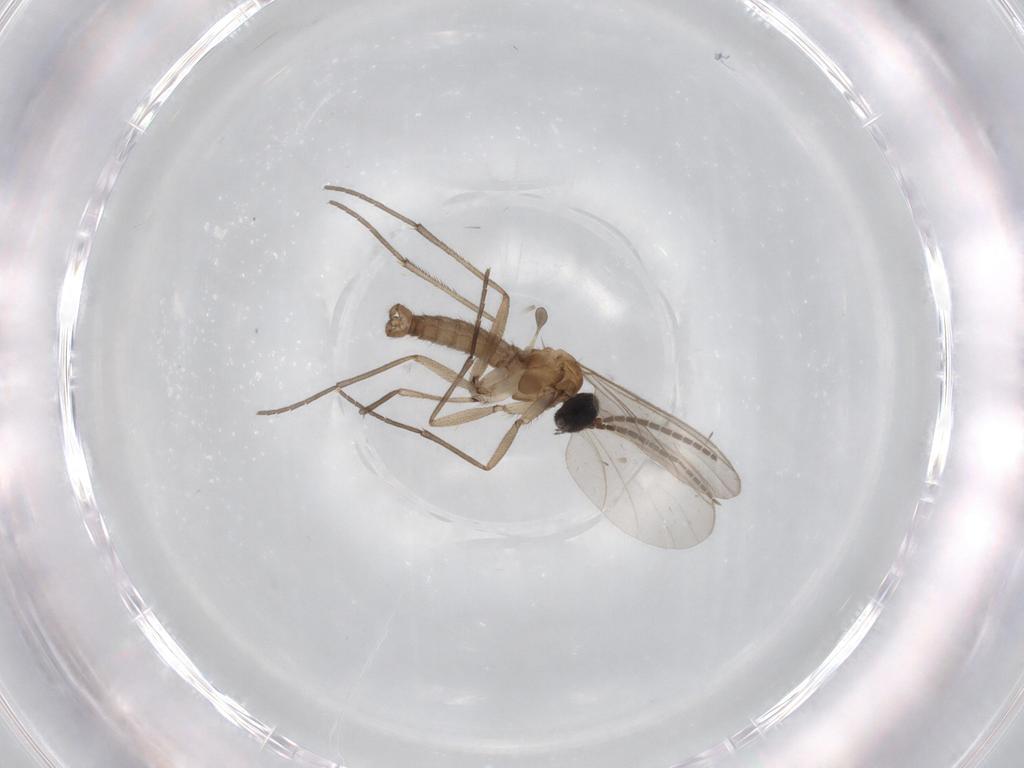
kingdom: Animalia
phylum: Arthropoda
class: Insecta
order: Diptera
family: Sciaridae
